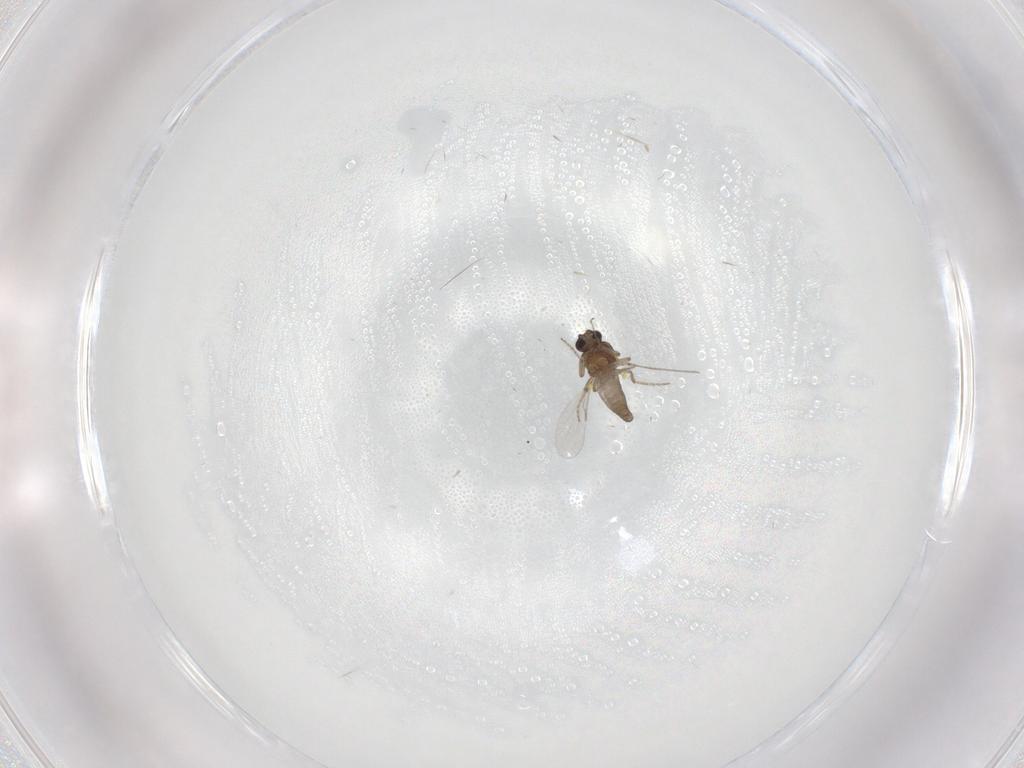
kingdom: Animalia
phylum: Arthropoda
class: Insecta
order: Diptera
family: Ceratopogonidae
